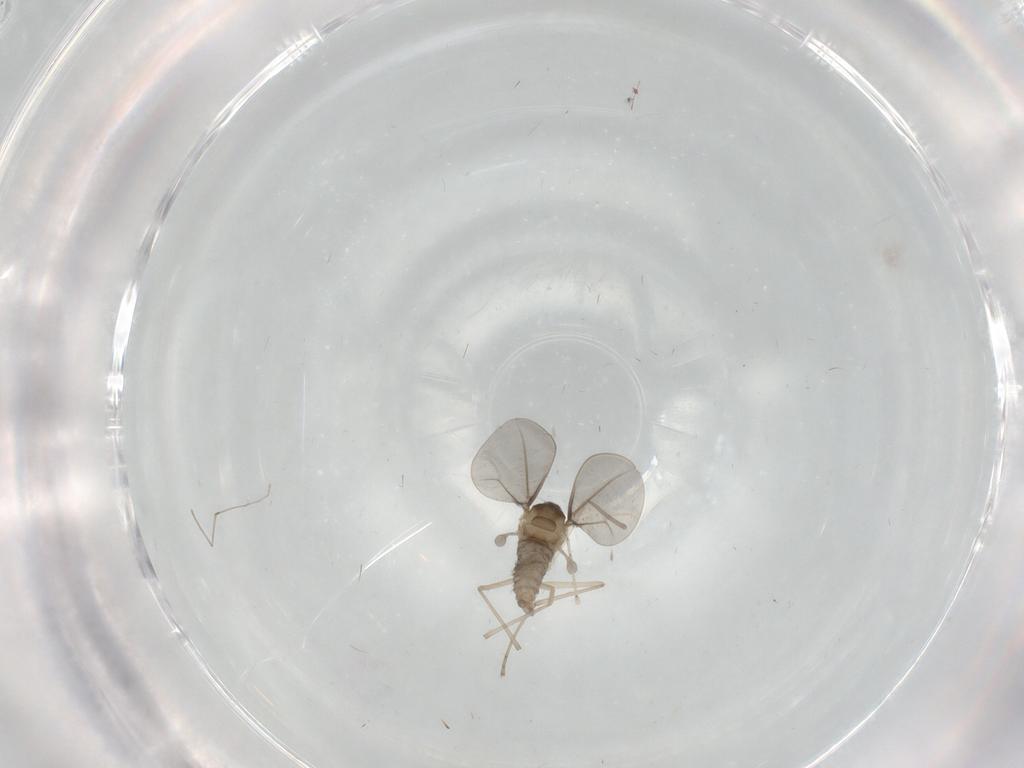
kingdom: Animalia
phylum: Arthropoda
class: Insecta
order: Diptera
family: Cecidomyiidae
